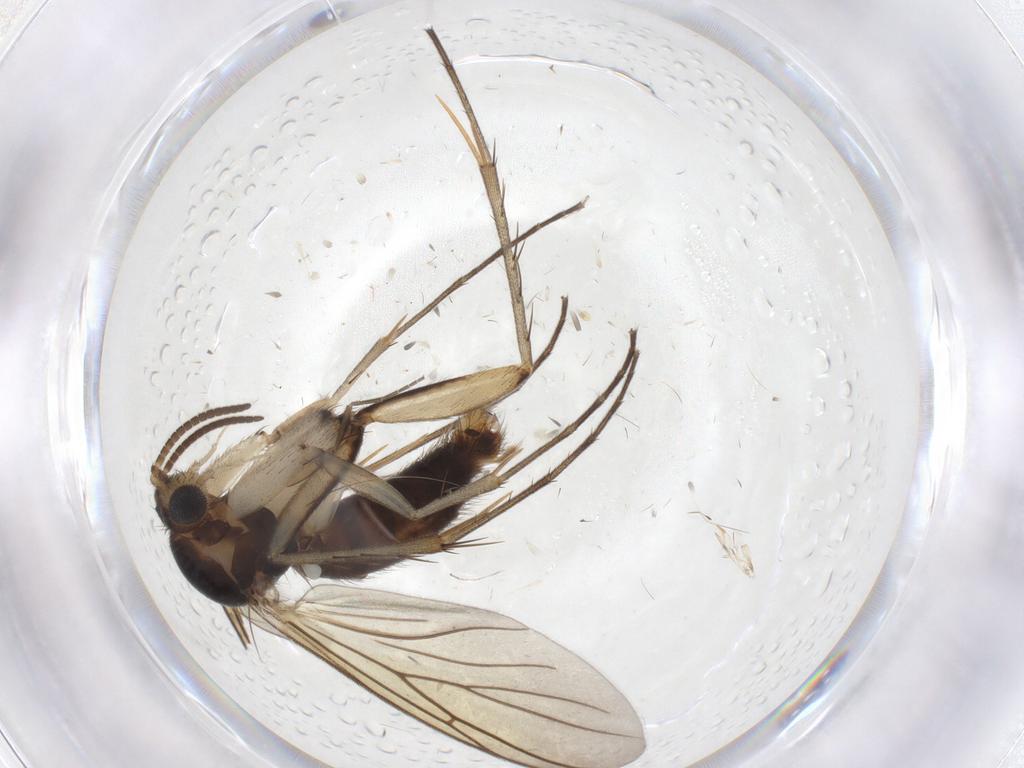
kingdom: Animalia
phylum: Arthropoda
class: Insecta
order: Diptera
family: Phoridae
